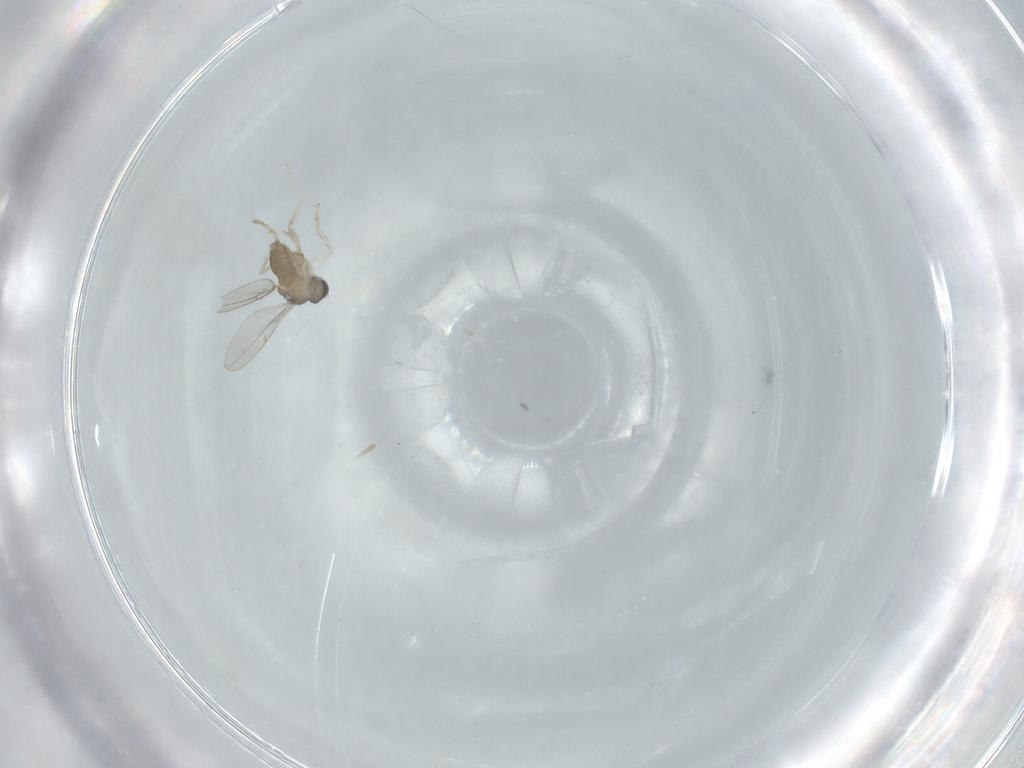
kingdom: Animalia
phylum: Arthropoda
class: Insecta
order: Diptera
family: Cecidomyiidae
